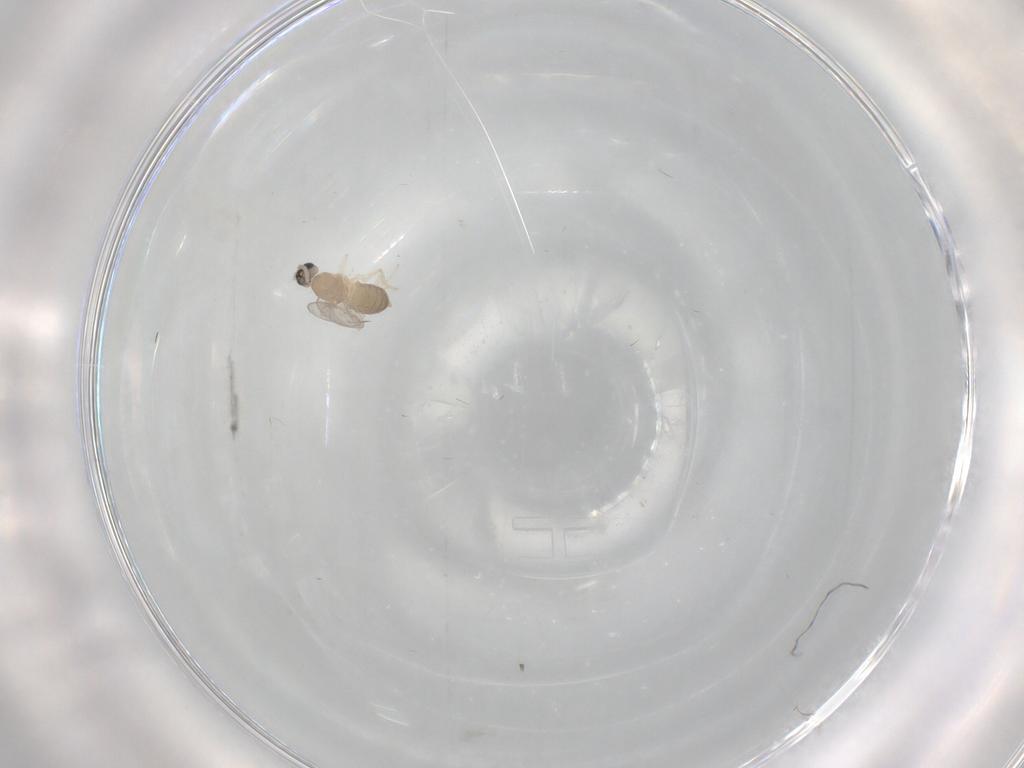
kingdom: Animalia
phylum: Arthropoda
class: Insecta
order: Diptera
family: Cecidomyiidae
